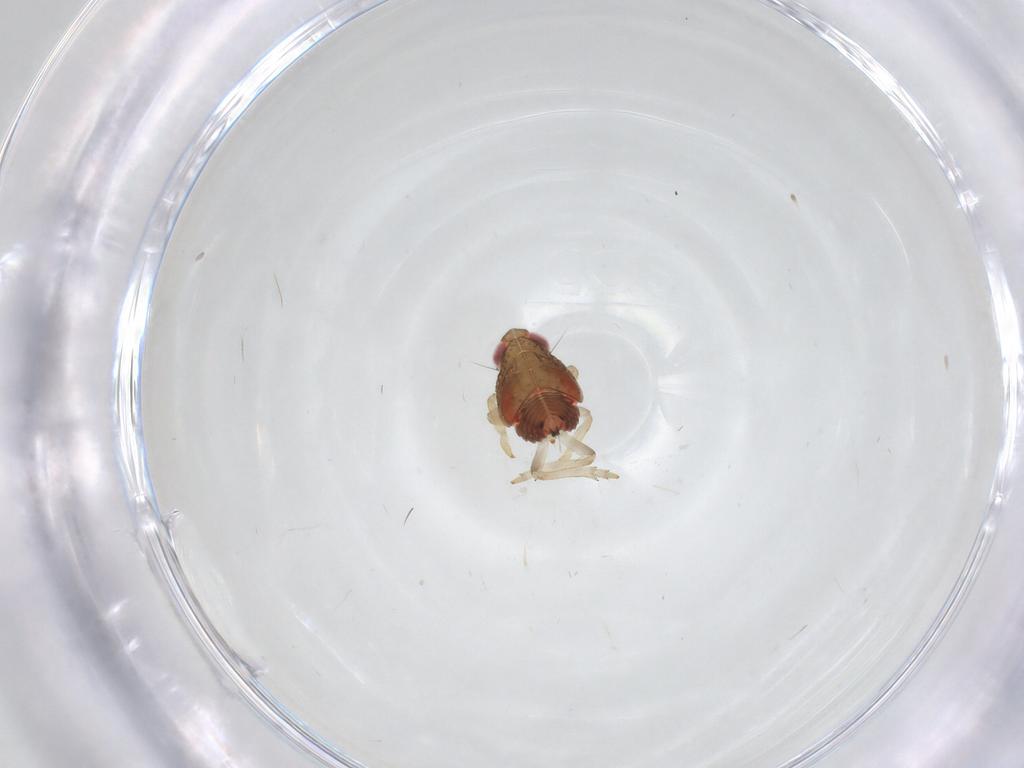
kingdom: Animalia
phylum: Arthropoda
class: Insecta
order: Hemiptera
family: Issidae
